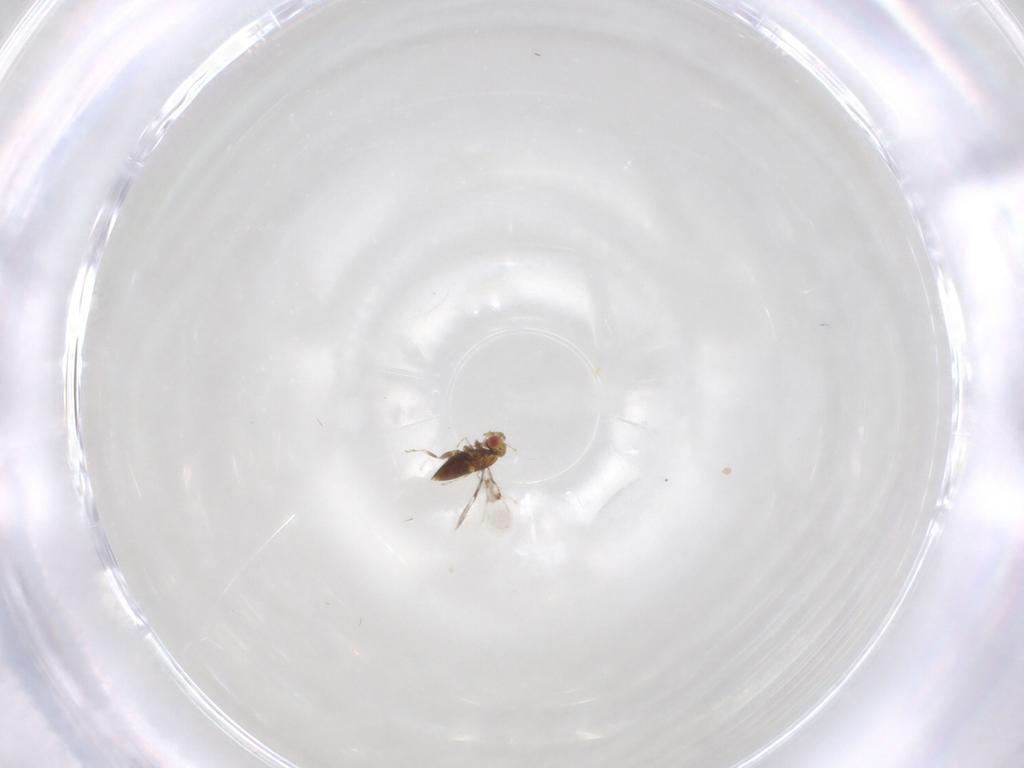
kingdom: Animalia
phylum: Arthropoda
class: Insecta
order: Hymenoptera
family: Trichogrammatidae
